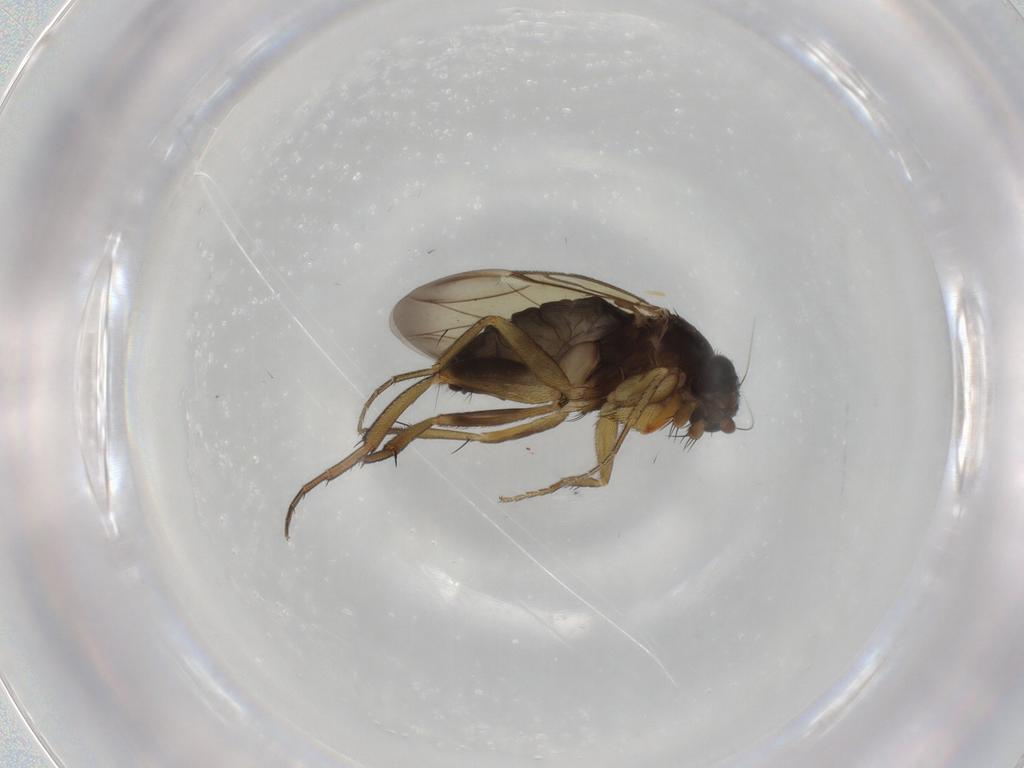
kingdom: Animalia
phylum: Arthropoda
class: Insecta
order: Diptera
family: Phoridae
